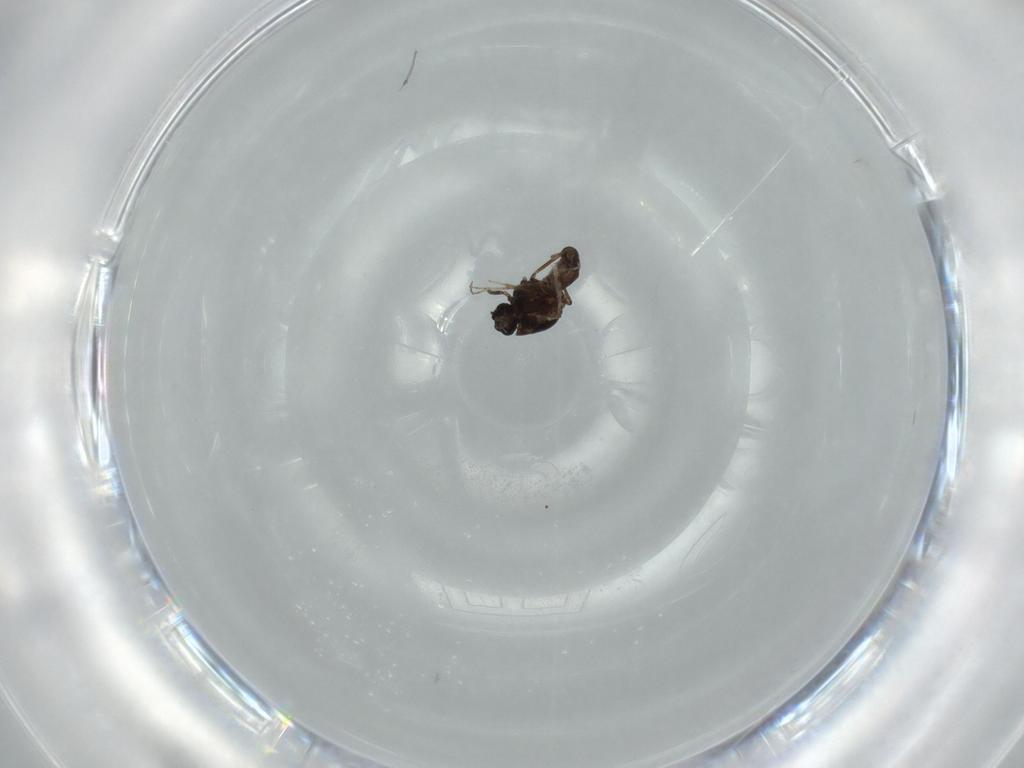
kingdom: Animalia
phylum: Arthropoda
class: Insecta
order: Diptera
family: Ceratopogonidae
